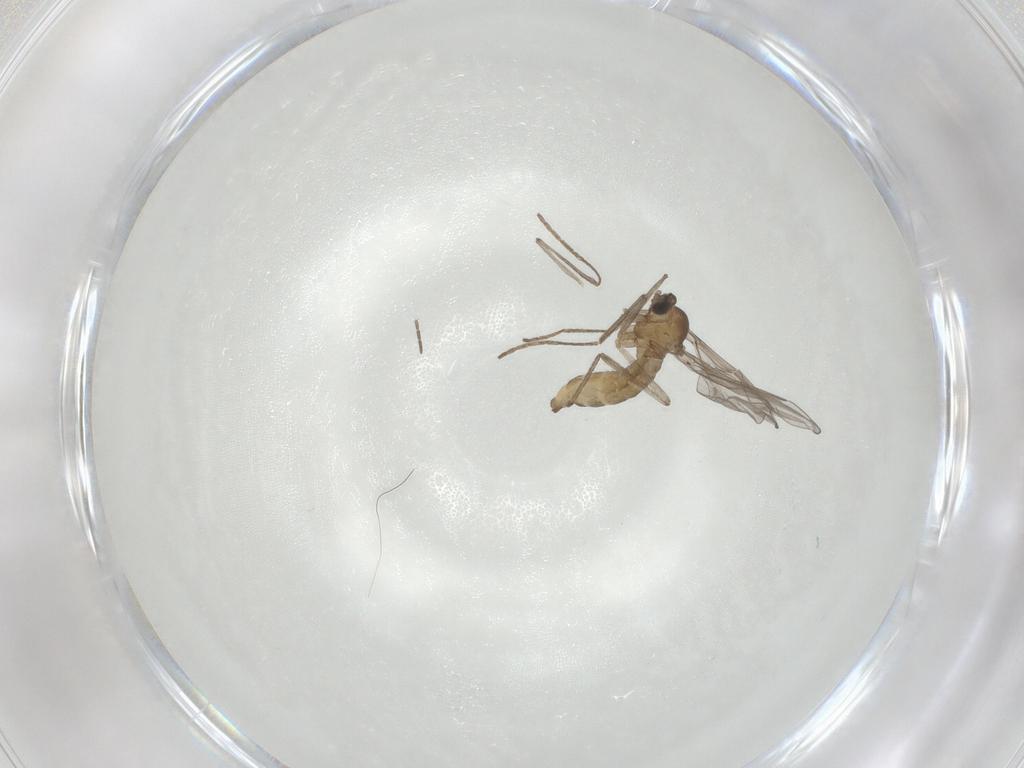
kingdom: Animalia
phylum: Arthropoda
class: Insecta
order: Diptera
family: Cecidomyiidae
